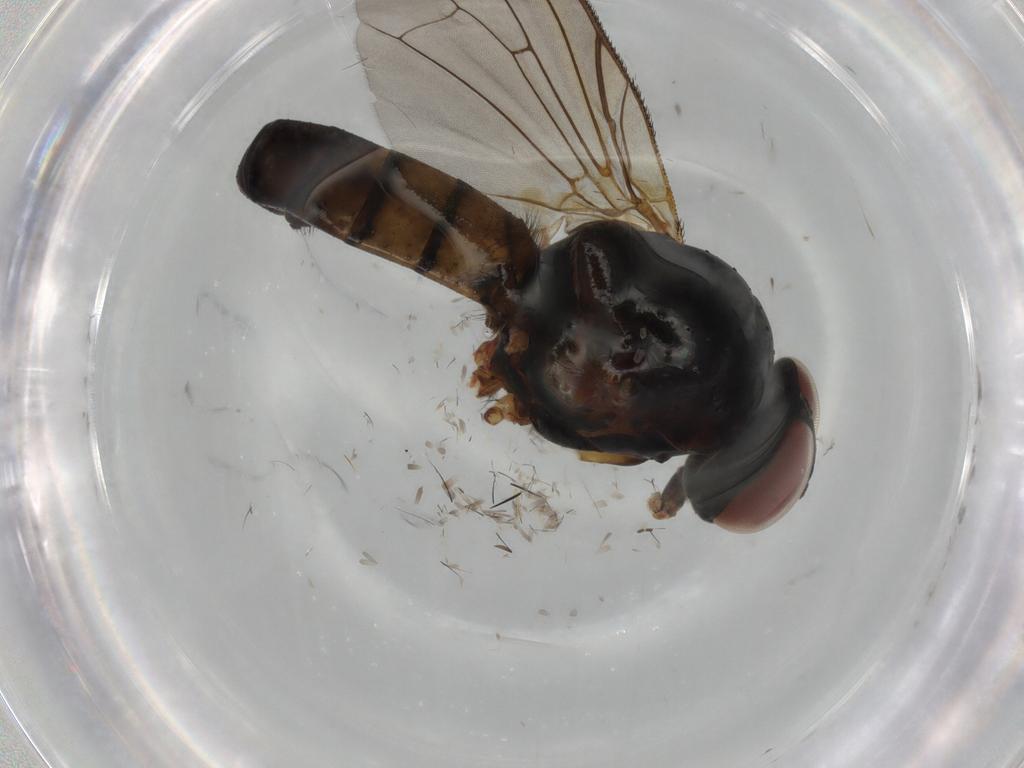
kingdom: Animalia
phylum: Arthropoda
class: Insecta
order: Diptera
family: Anthomyiidae
